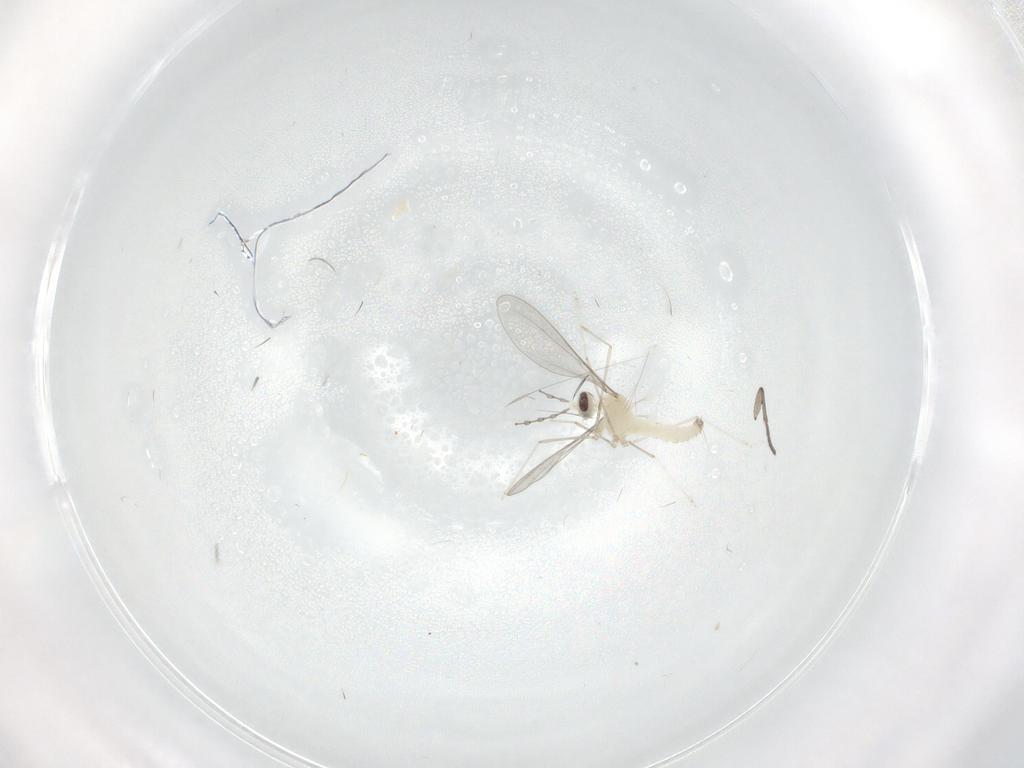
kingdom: Animalia
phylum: Arthropoda
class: Insecta
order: Diptera
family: Sciaridae
